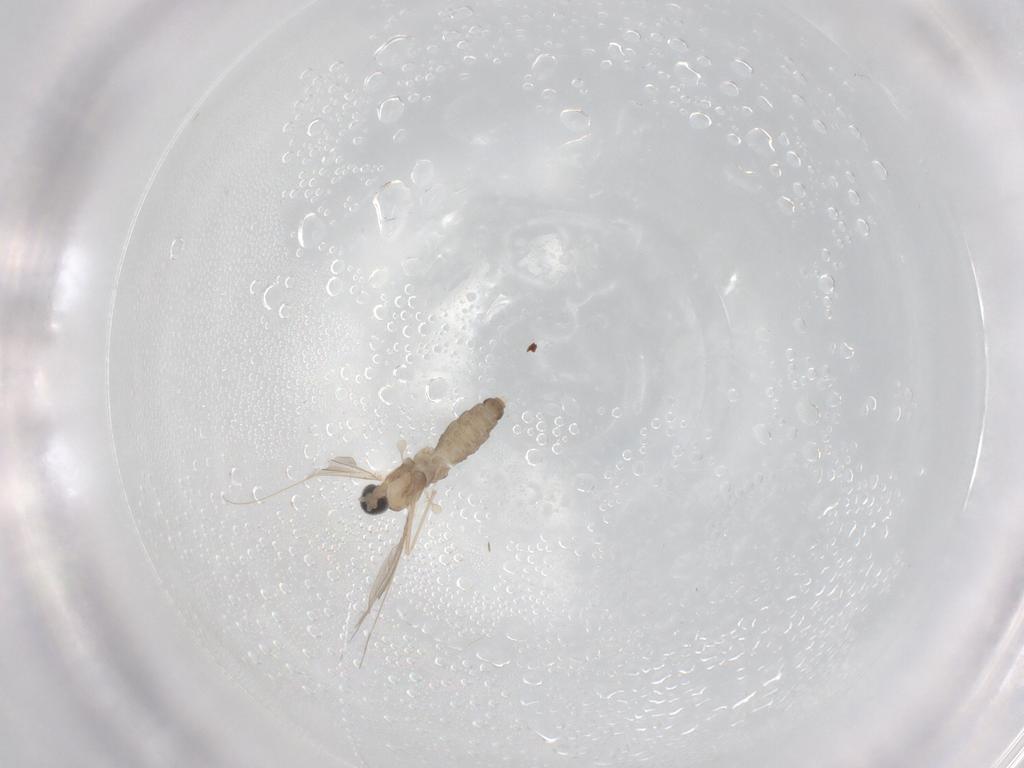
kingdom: Animalia
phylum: Arthropoda
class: Insecta
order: Diptera
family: Cecidomyiidae
